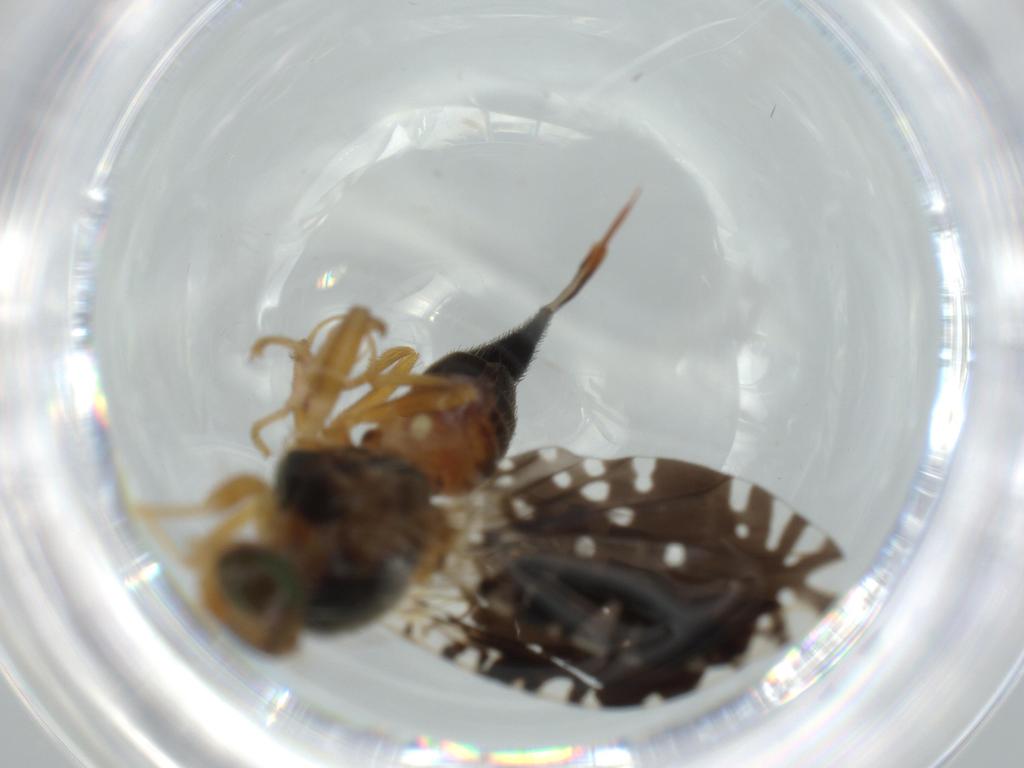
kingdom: Animalia
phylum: Arthropoda
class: Insecta
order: Diptera
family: Tephritidae
